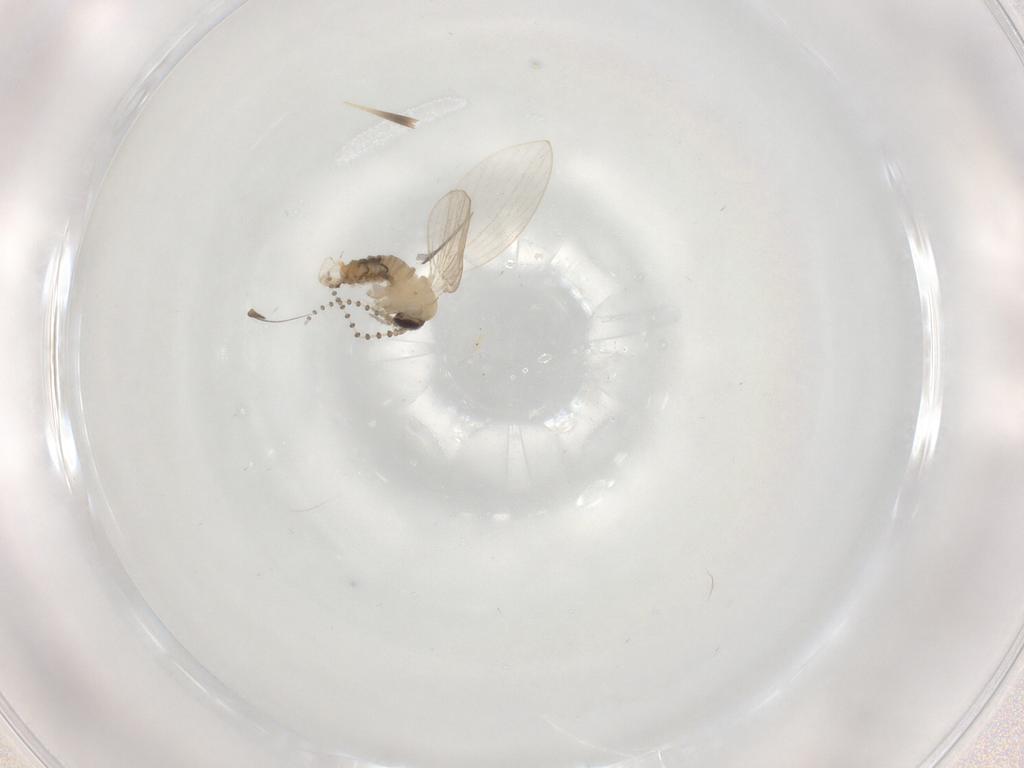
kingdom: Animalia
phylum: Arthropoda
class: Insecta
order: Diptera
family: Psychodidae
